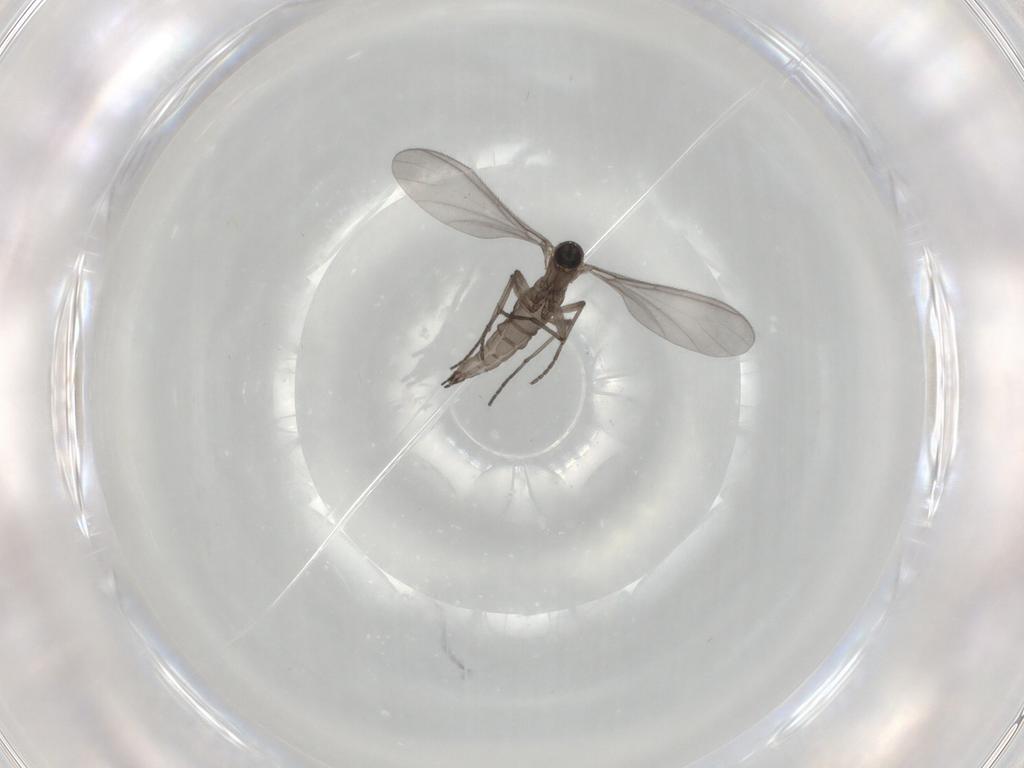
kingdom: Animalia
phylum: Arthropoda
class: Insecta
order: Diptera
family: Sciaridae
